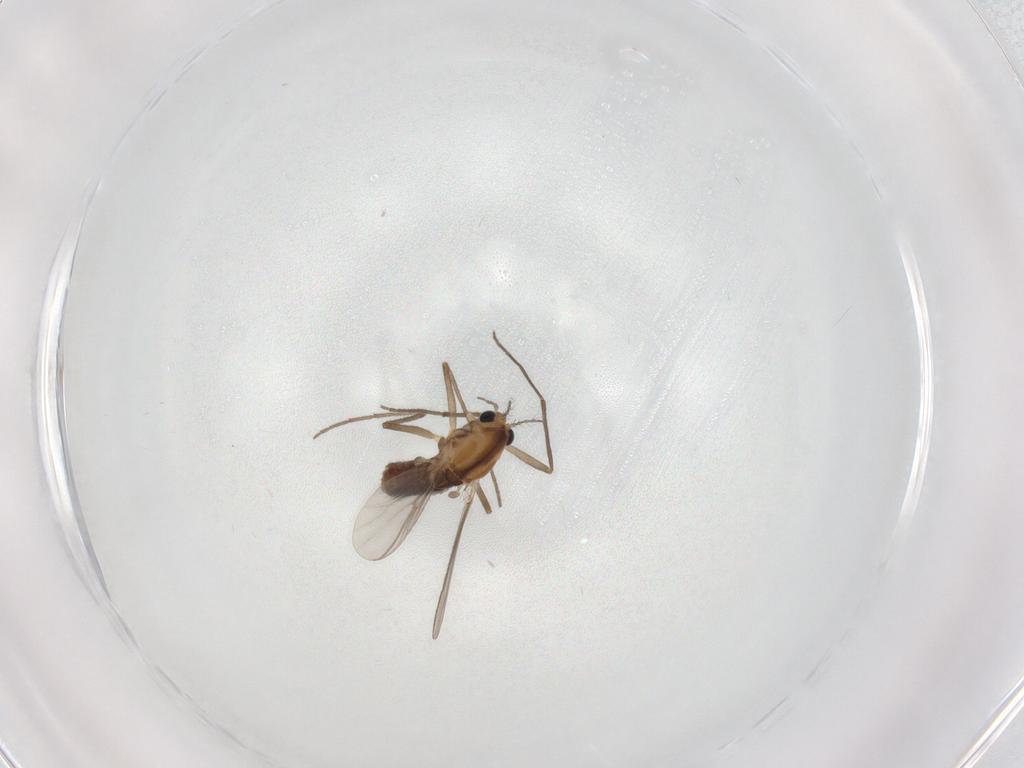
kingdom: Animalia
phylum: Arthropoda
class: Insecta
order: Diptera
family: Chironomidae
